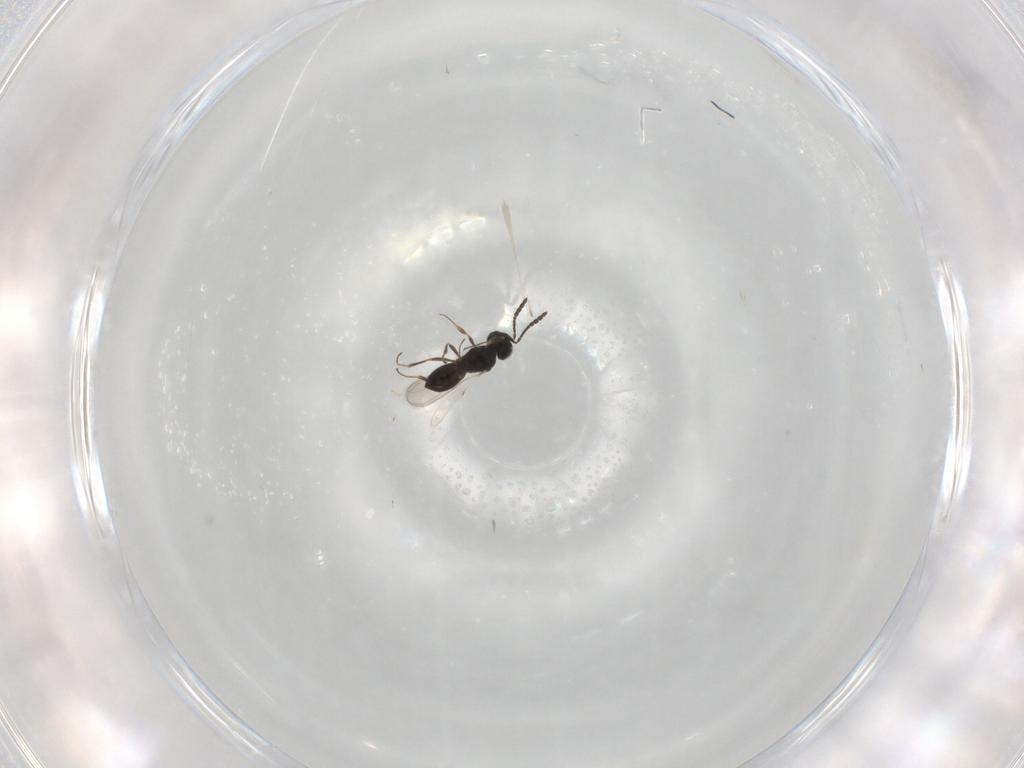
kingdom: Animalia
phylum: Arthropoda
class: Insecta
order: Hymenoptera
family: Scelionidae
